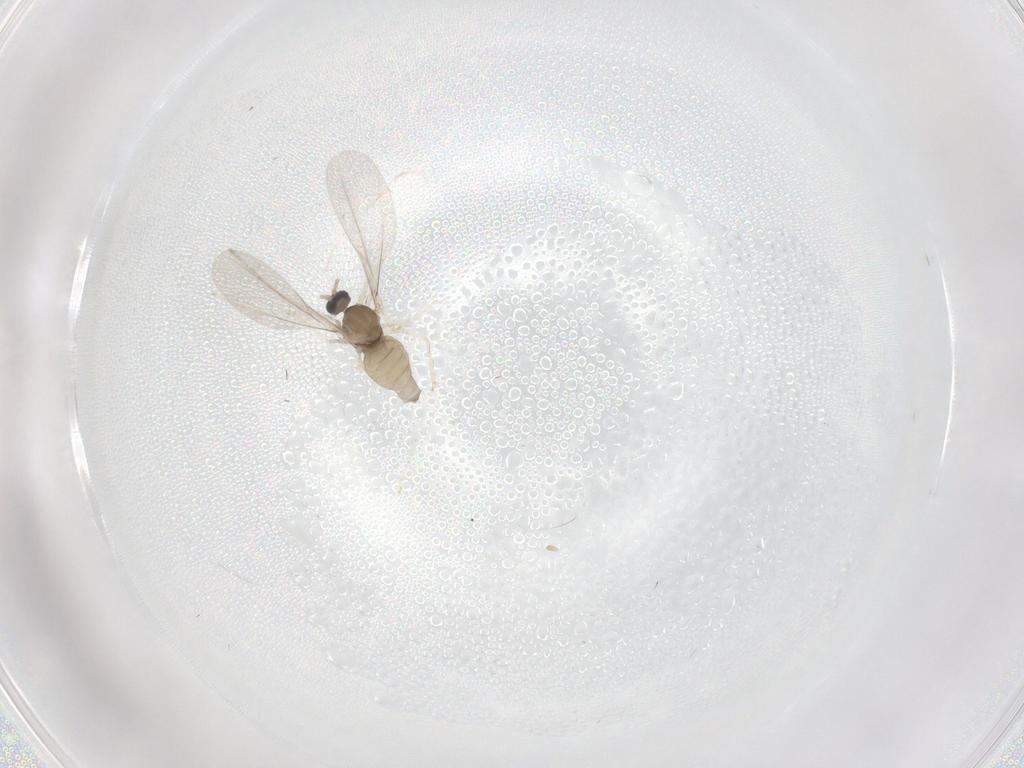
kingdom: Animalia
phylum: Arthropoda
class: Insecta
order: Diptera
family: Cecidomyiidae
